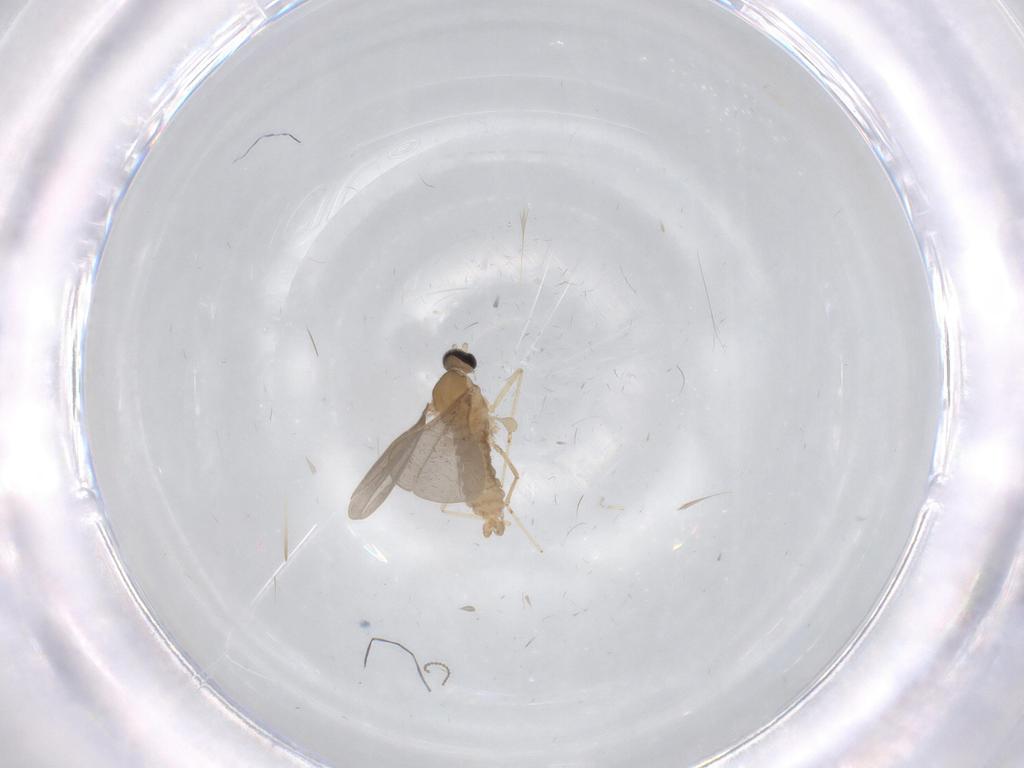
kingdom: Animalia
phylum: Arthropoda
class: Insecta
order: Diptera
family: Cecidomyiidae
